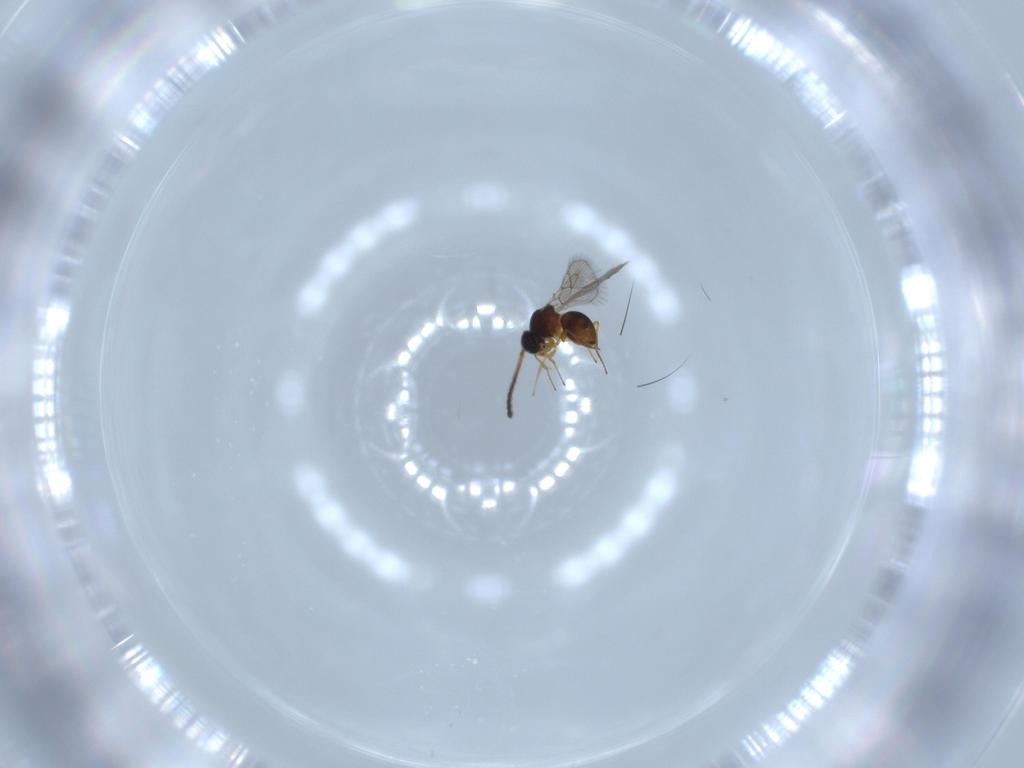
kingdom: Animalia
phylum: Arthropoda
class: Insecta
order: Hymenoptera
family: Figitidae
